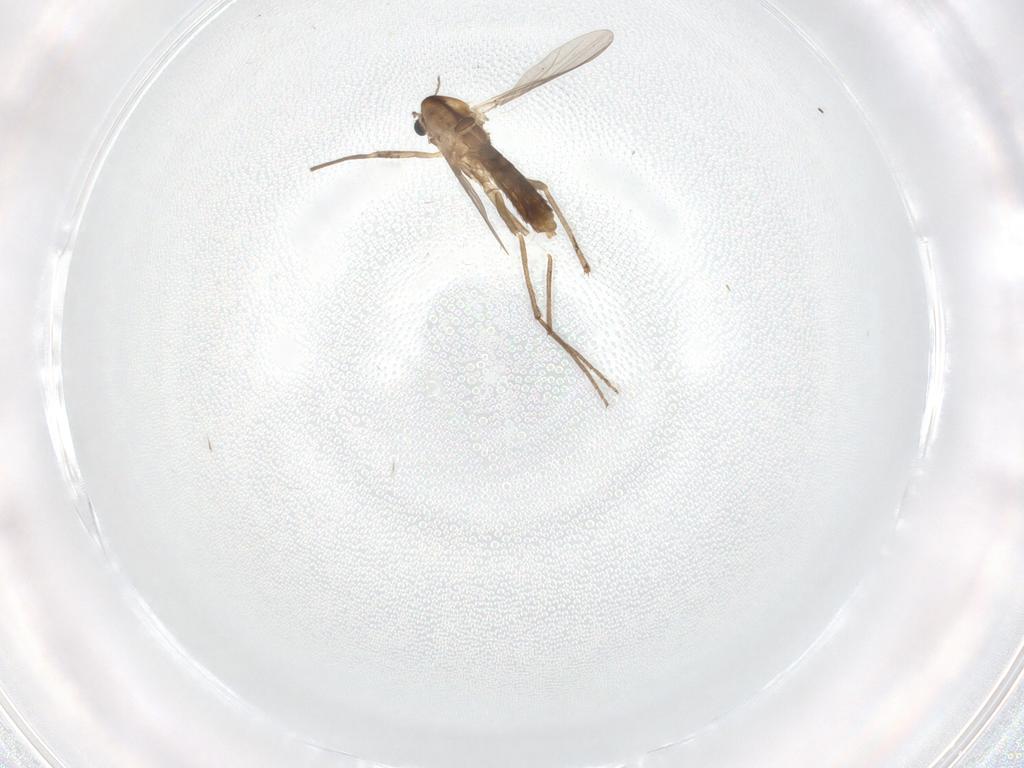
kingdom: Animalia
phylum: Arthropoda
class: Insecta
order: Diptera
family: Chironomidae
